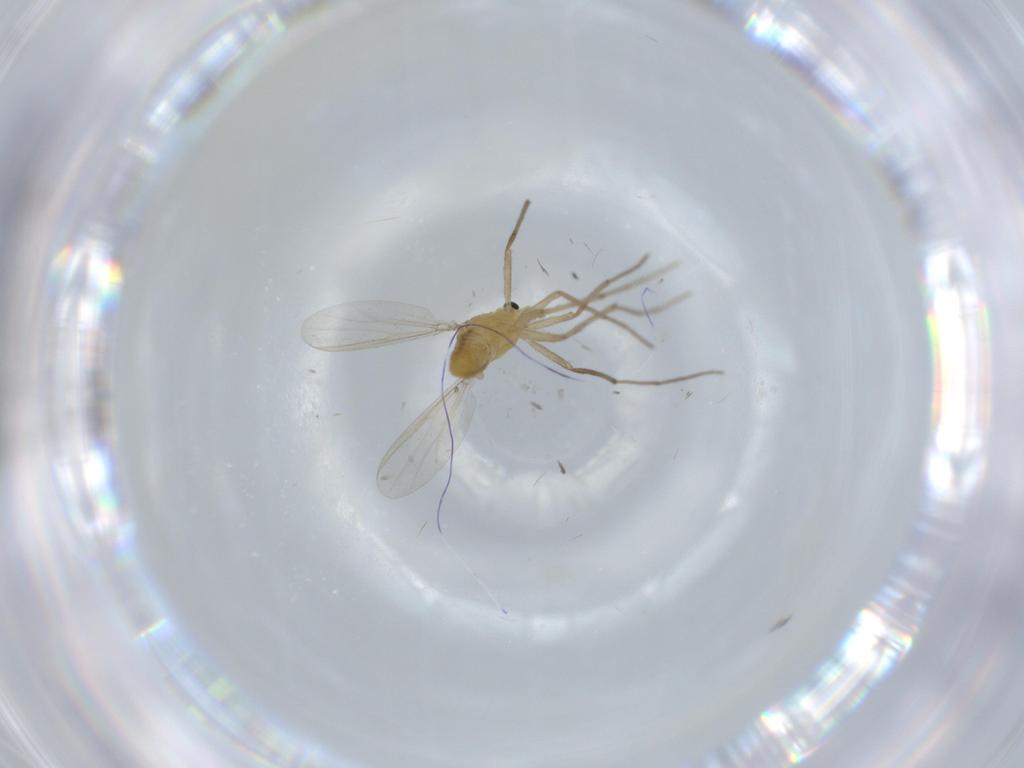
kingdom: Animalia
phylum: Arthropoda
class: Insecta
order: Diptera
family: Chironomidae
